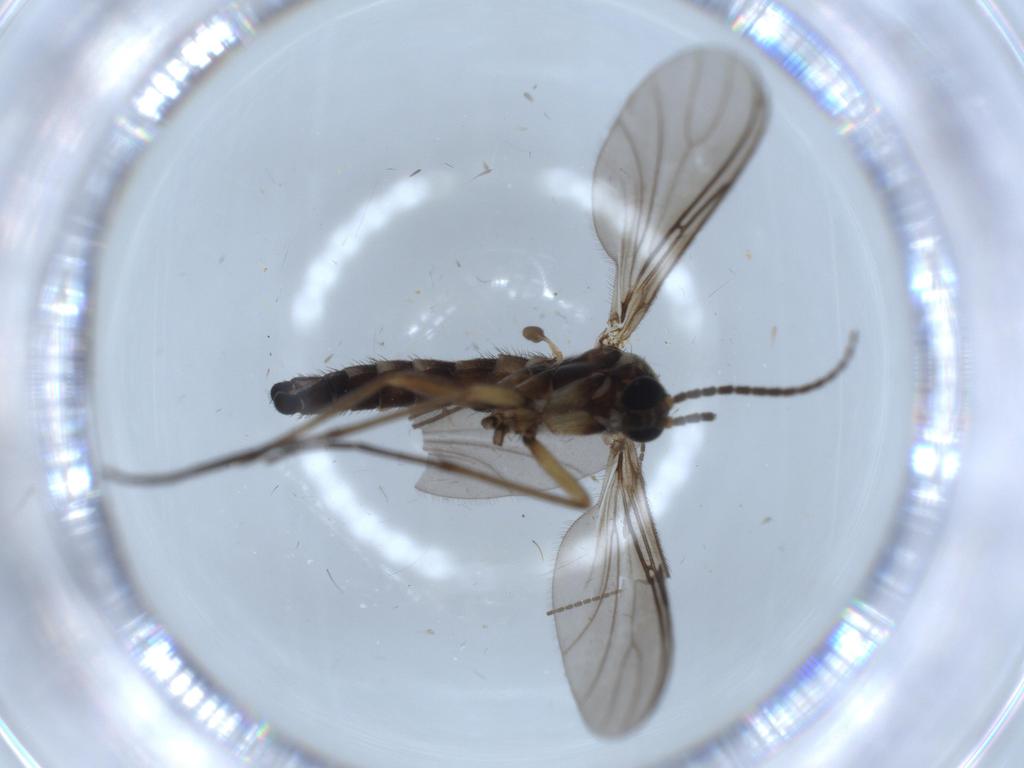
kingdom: Animalia
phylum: Arthropoda
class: Insecta
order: Diptera
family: Sciaridae
